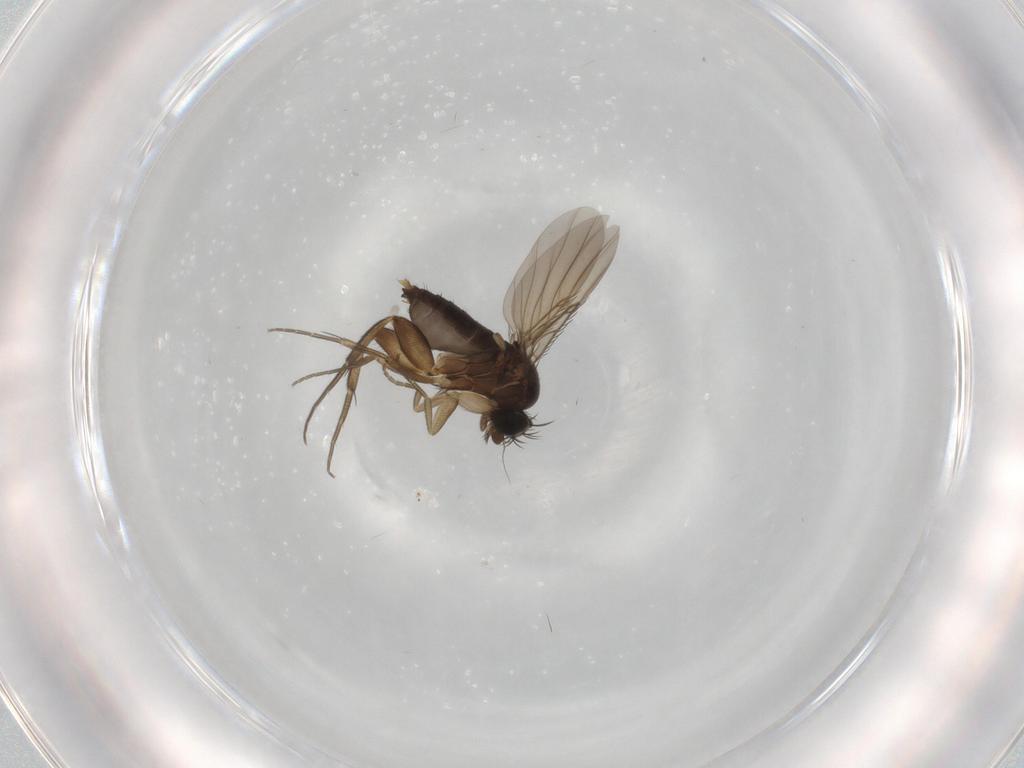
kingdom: Animalia
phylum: Arthropoda
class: Insecta
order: Diptera
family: Phoridae
